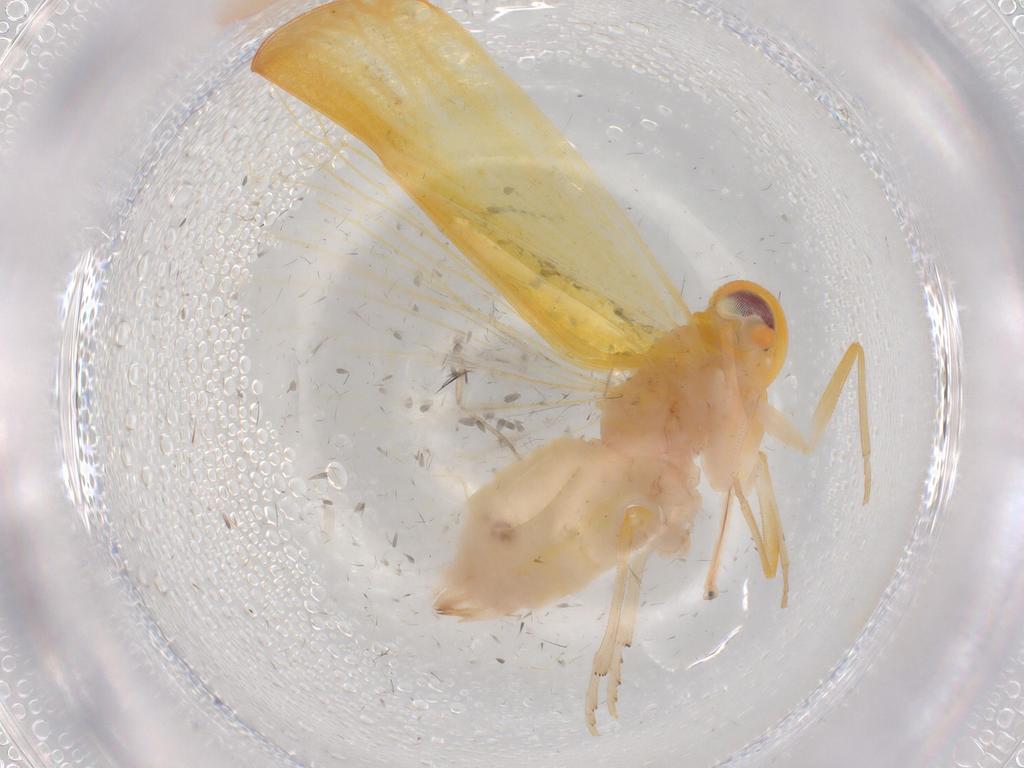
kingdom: Animalia
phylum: Arthropoda
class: Insecta
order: Hemiptera
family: Derbidae
